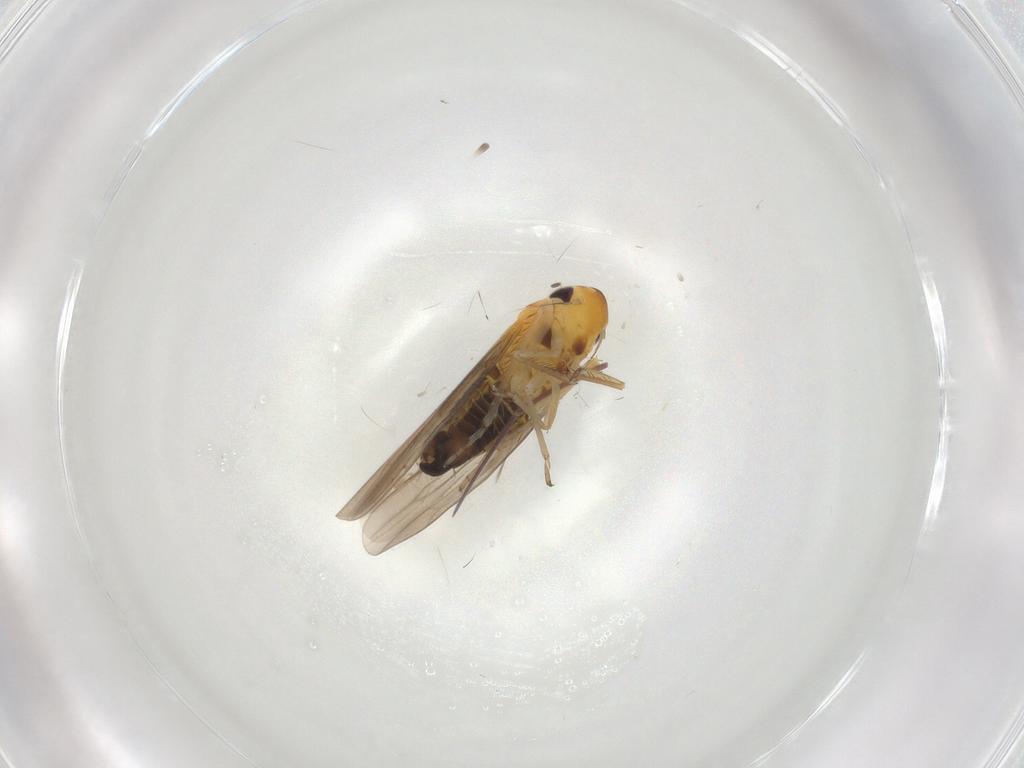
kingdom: Animalia
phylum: Arthropoda
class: Insecta
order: Hemiptera
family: Cicadellidae
